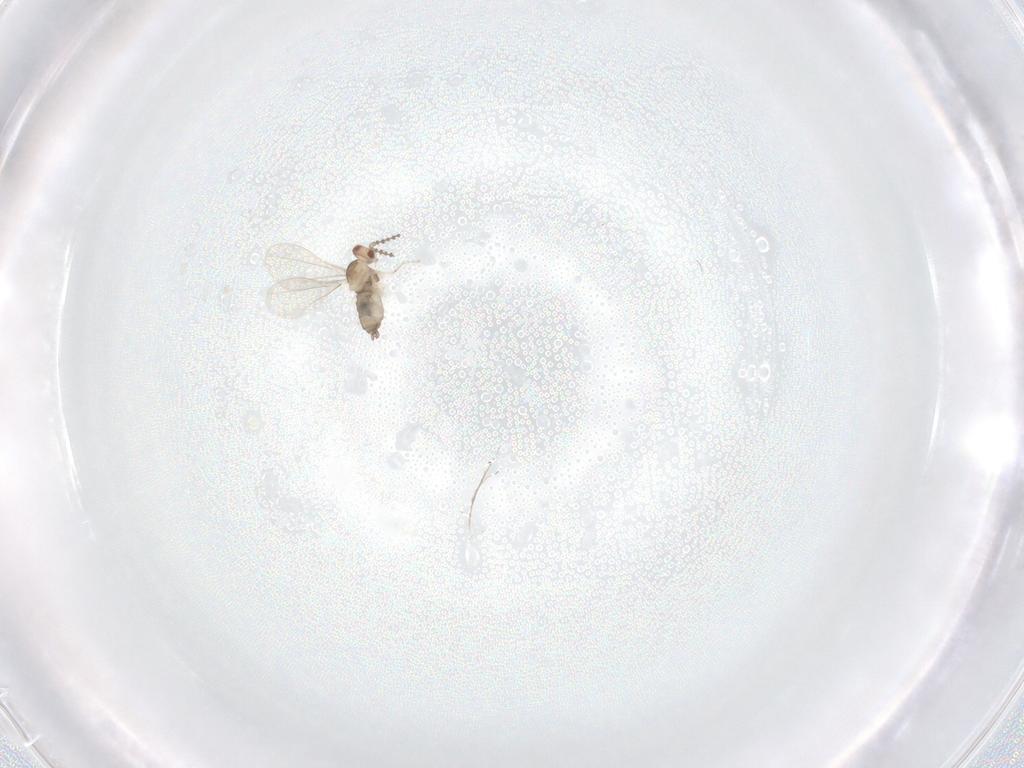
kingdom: Animalia
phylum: Arthropoda
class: Insecta
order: Diptera
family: Cecidomyiidae
